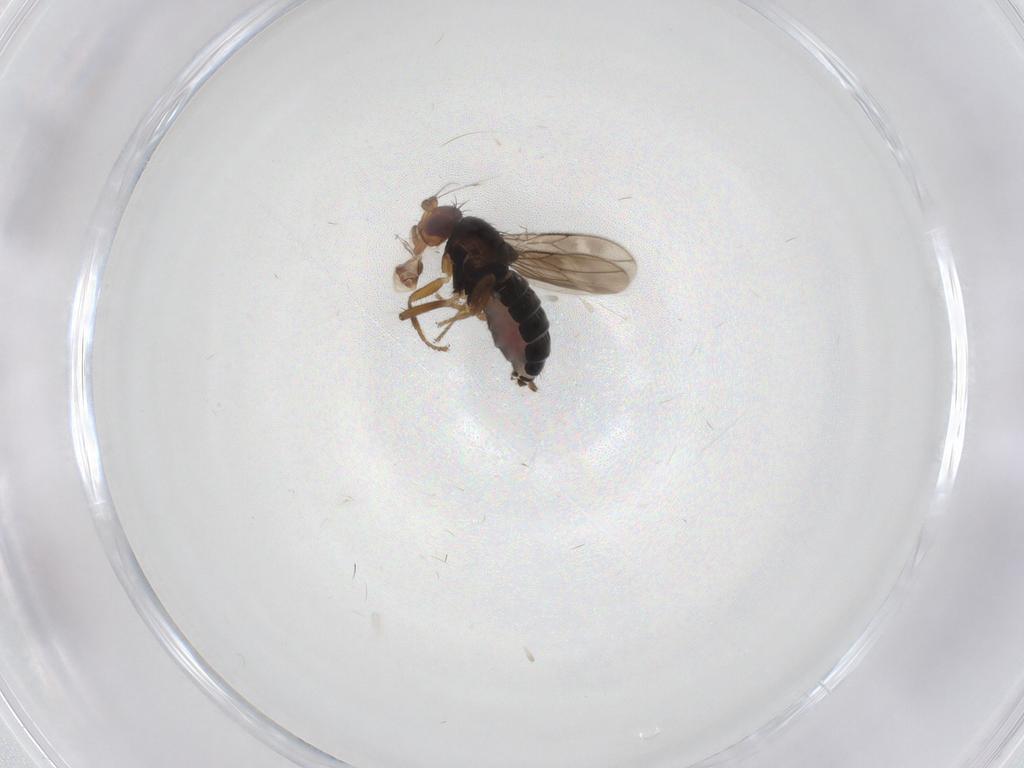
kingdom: Animalia
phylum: Arthropoda
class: Insecta
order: Diptera
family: Sphaeroceridae
